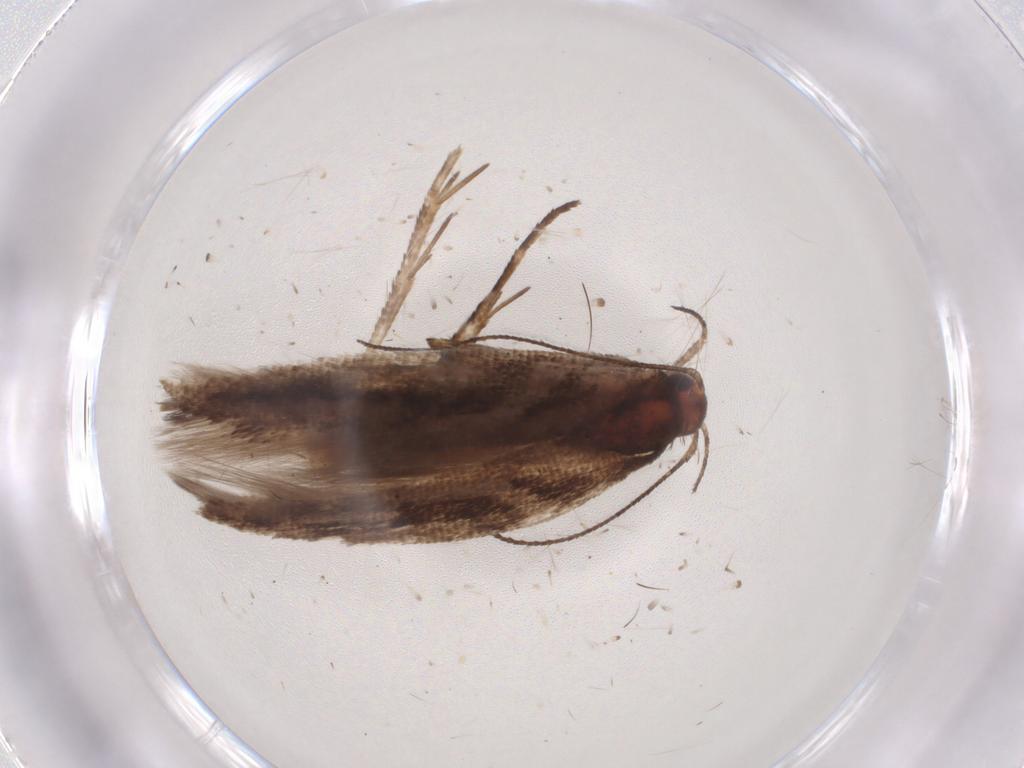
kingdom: Animalia
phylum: Arthropoda
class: Insecta
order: Lepidoptera
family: Gelechiidae
